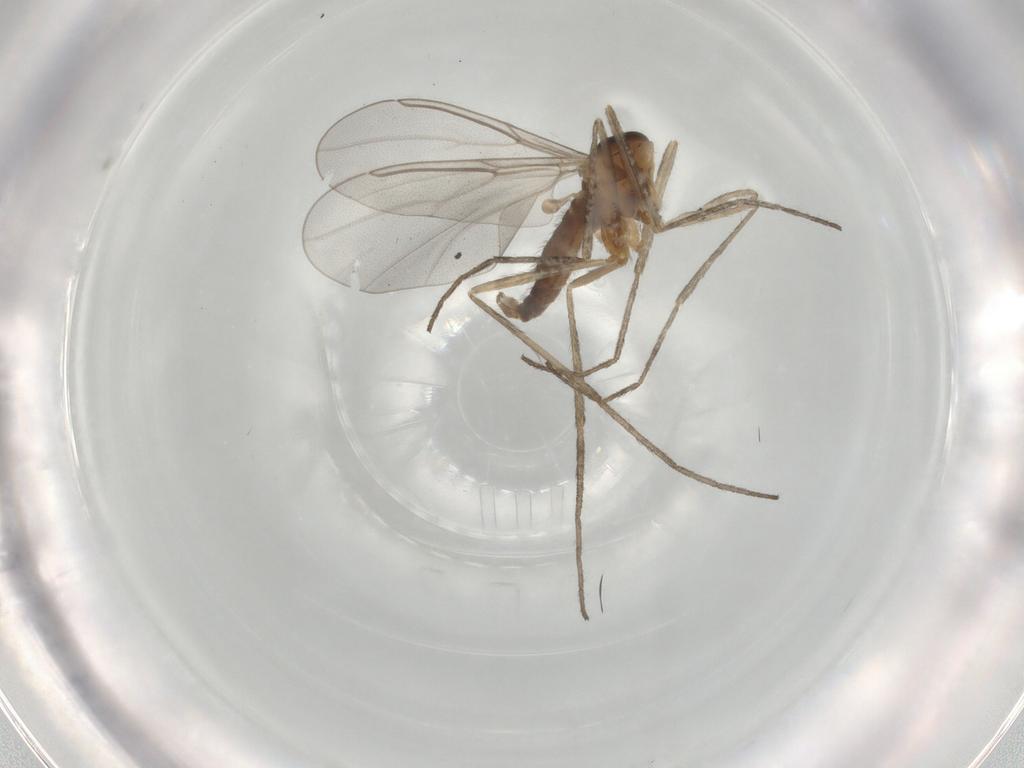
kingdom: Animalia
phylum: Arthropoda
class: Insecta
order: Diptera
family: Cecidomyiidae
